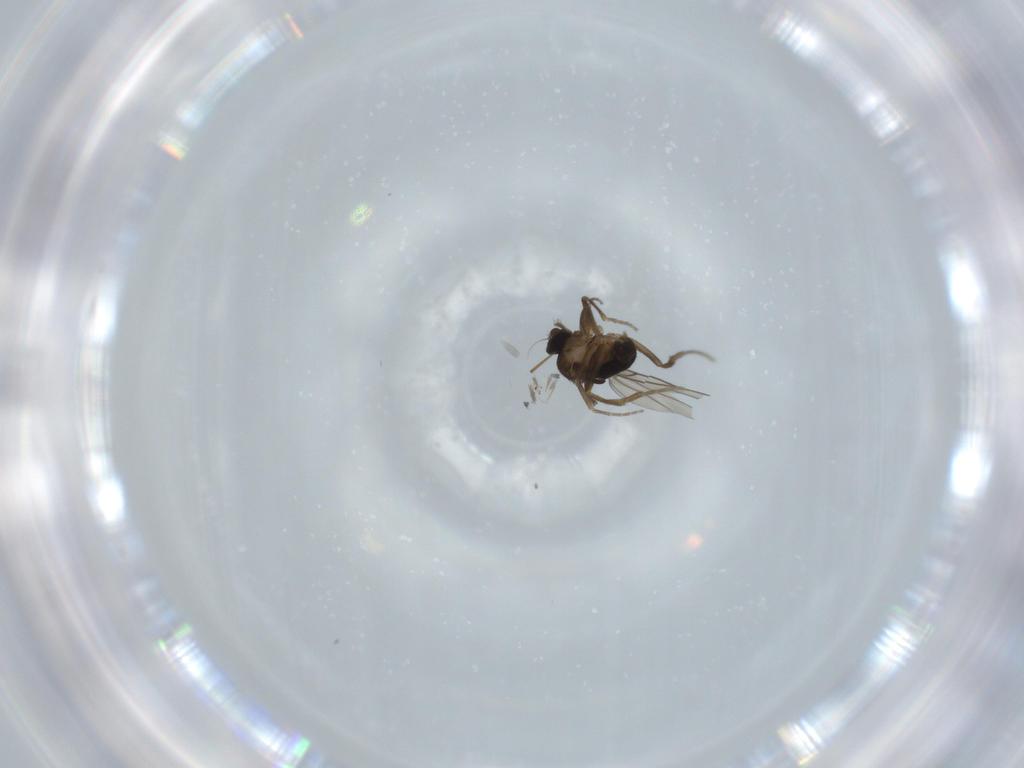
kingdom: Animalia
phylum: Arthropoda
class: Insecta
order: Diptera
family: Phoridae
